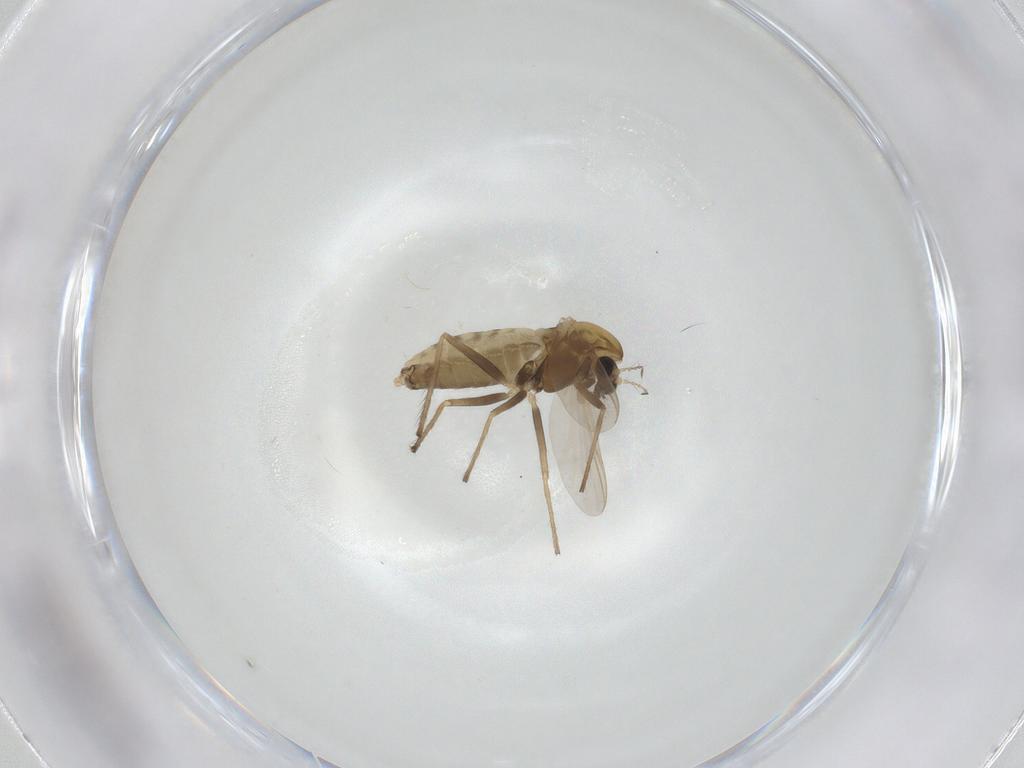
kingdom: Animalia
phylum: Arthropoda
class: Insecta
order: Diptera
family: Chironomidae
